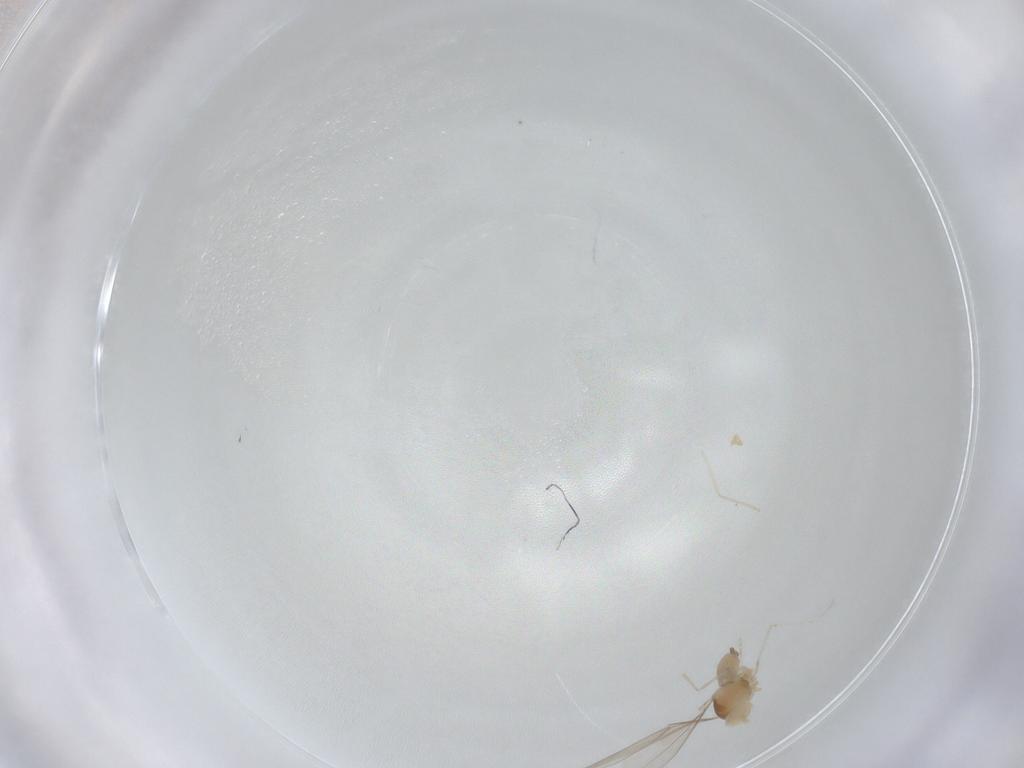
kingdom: Animalia
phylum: Arthropoda
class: Insecta
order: Diptera
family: Cecidomyiidae
